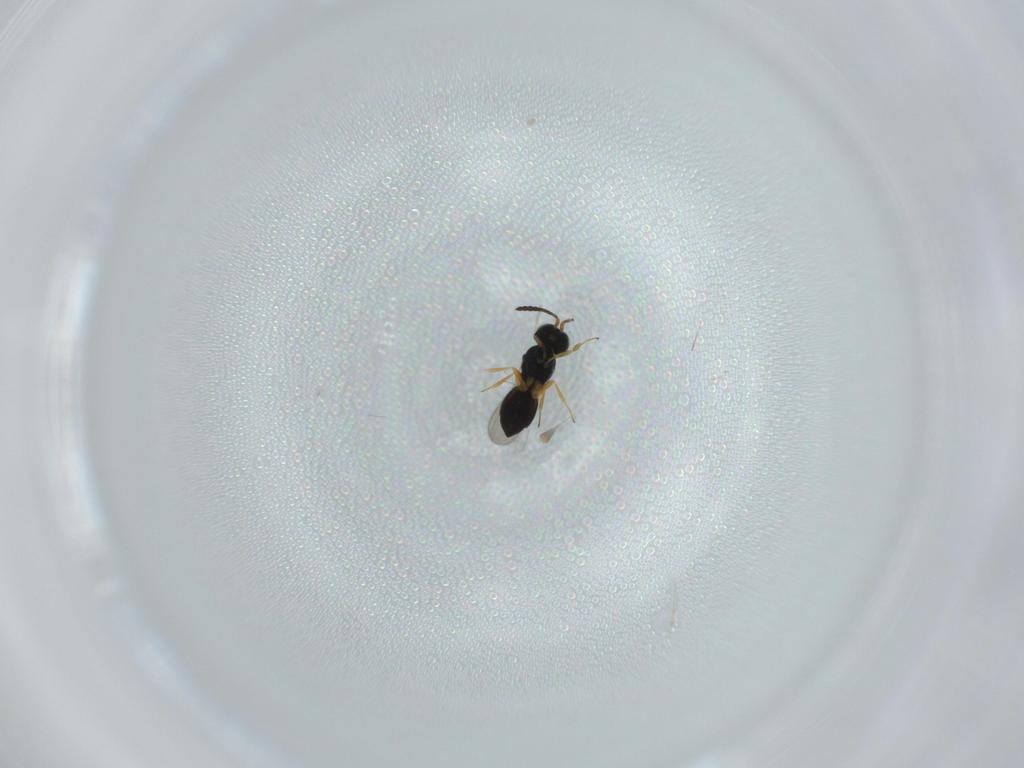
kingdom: Animalia
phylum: Arthropoda
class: Insecta
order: Hymenoptera
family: Scelionidae
